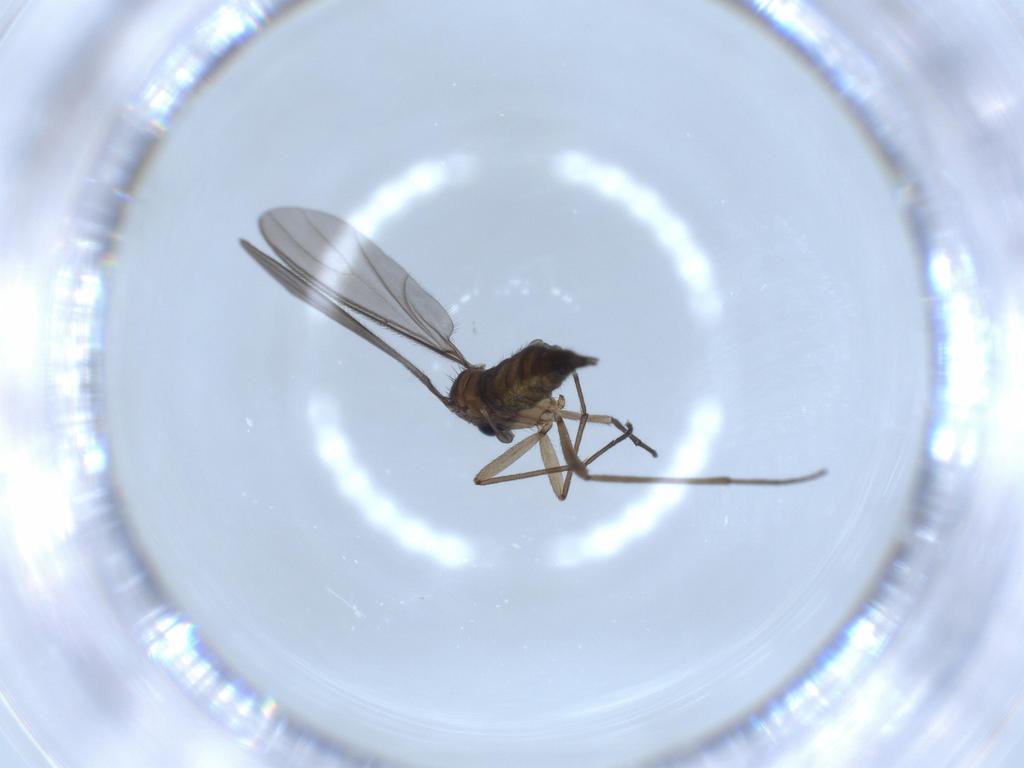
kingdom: Animalia
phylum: Arthropoda
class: Insecta
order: Diptera
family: Sciaridae
